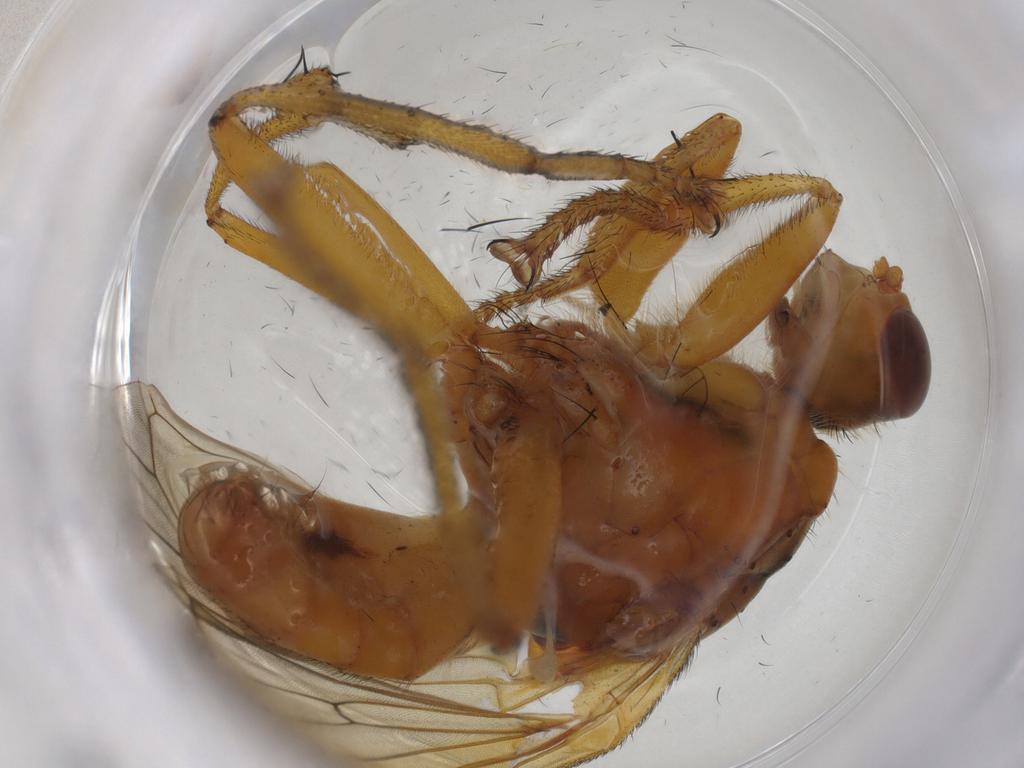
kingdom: Animalia
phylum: Arthropoda
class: Insecta
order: Diptera
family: Scathophagidae
